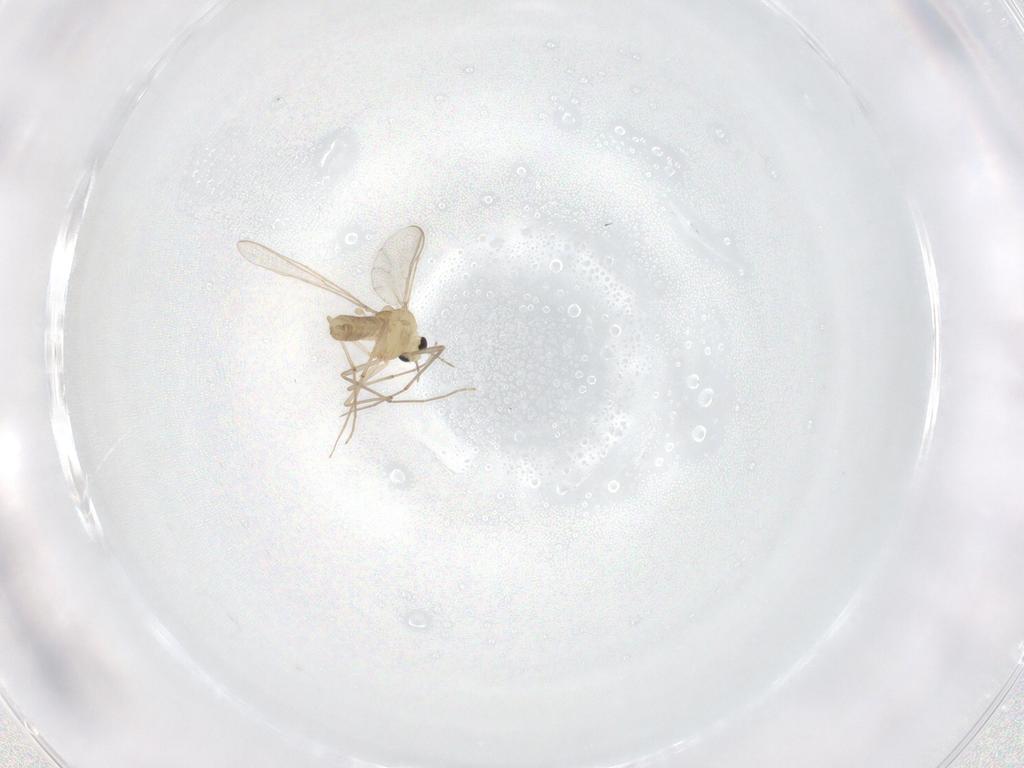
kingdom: Animalia
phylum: Arthropoda
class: Insecta
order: Diptera
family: Chironomidae
